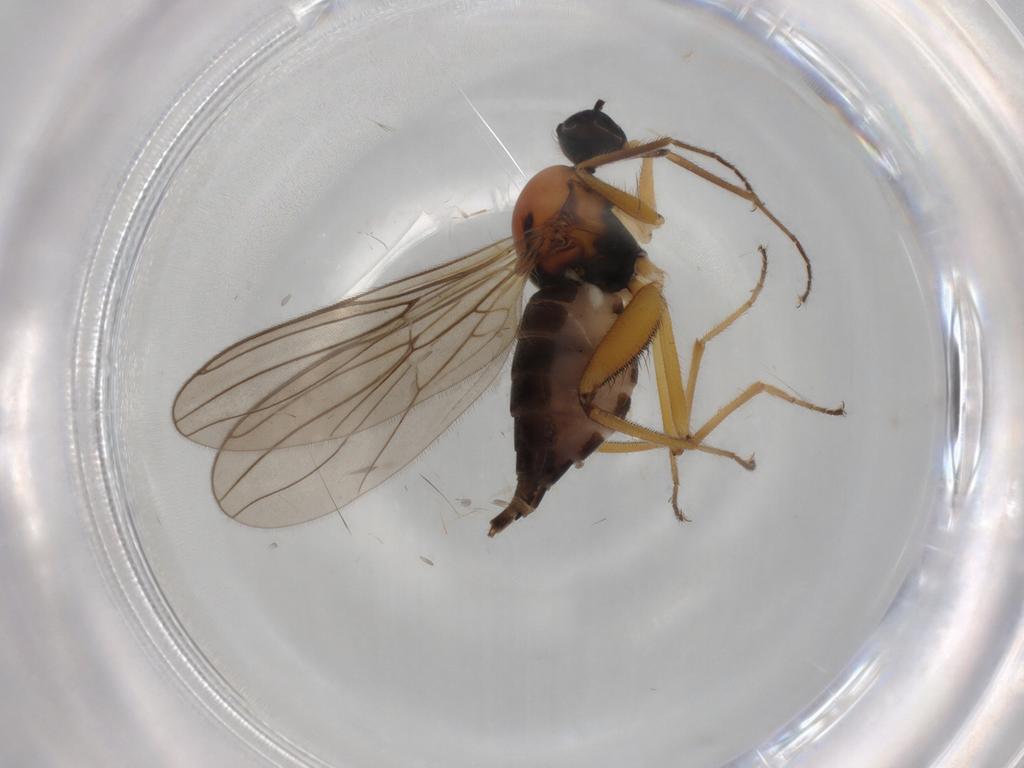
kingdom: Animalia
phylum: Arthropoda
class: Insecta
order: Diptera
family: Hybotidae
